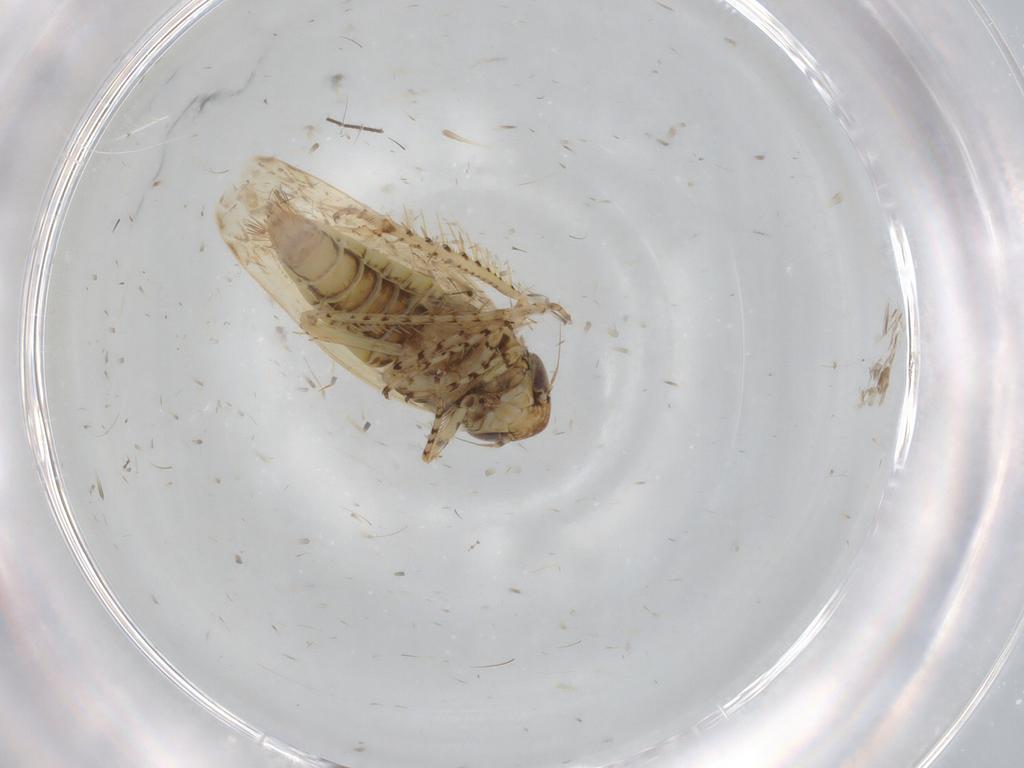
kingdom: Animalia
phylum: Arthropoda
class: Insecta
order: Hemiptera
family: Cicadellidae
